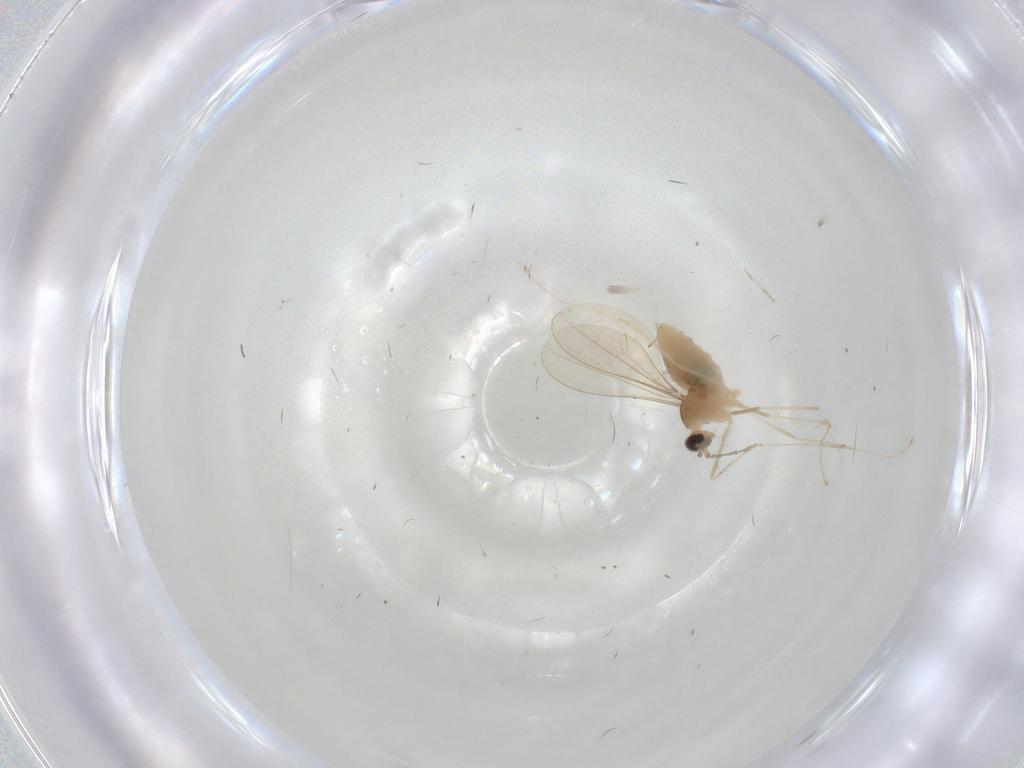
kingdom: Animalia
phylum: Arthropoda
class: Insecta
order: Diptera
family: Cecidomyiidae
